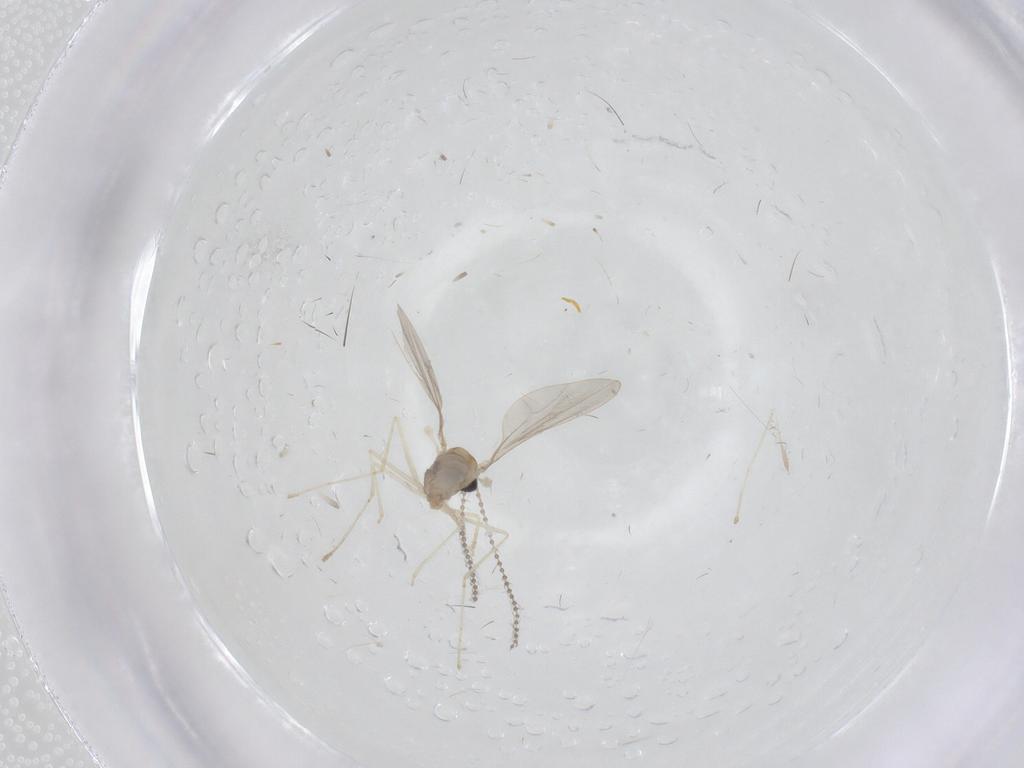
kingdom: Animalia
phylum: Arthropoda
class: Insecta
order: Diptera
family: Cecidomyiidae
